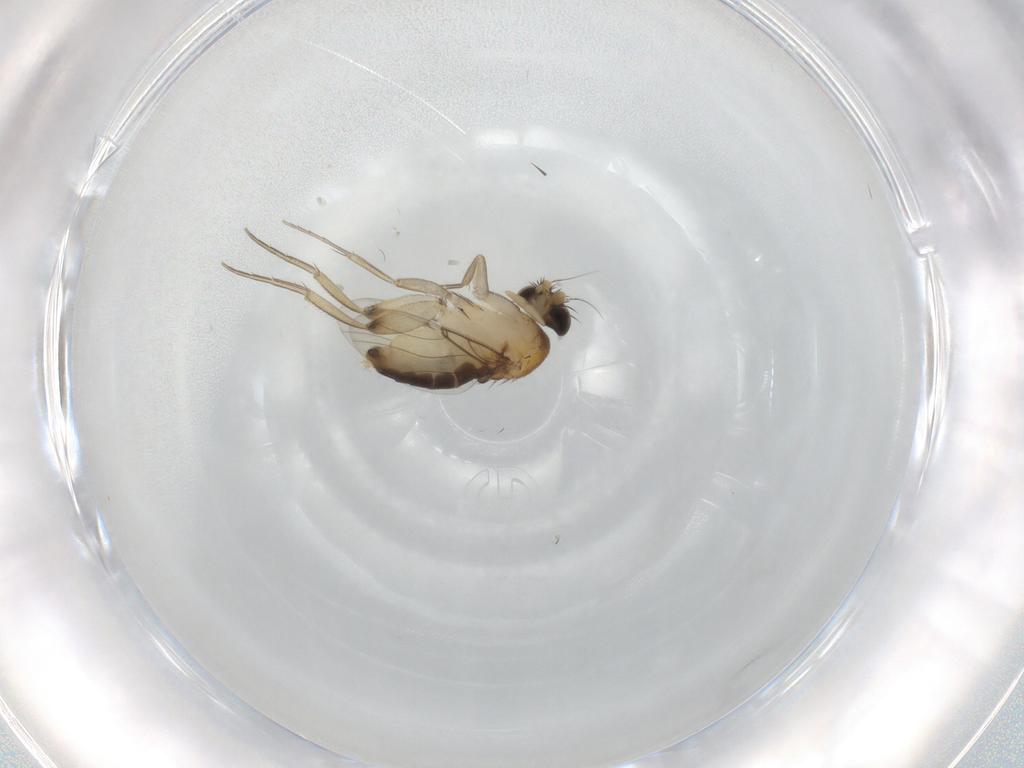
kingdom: Animalia
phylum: Arthropoda
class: Insecta
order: Diptera
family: Phoridae
